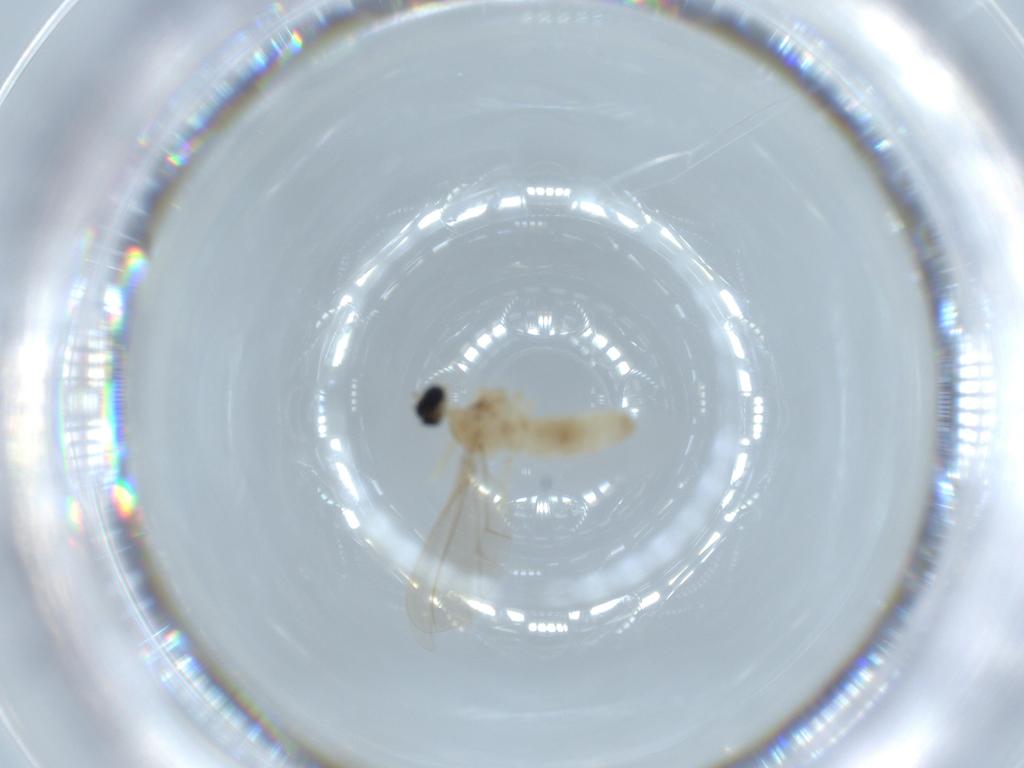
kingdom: Animalia
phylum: Arthropoda
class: Insecta
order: Diptera
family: Cecidomyiidae
